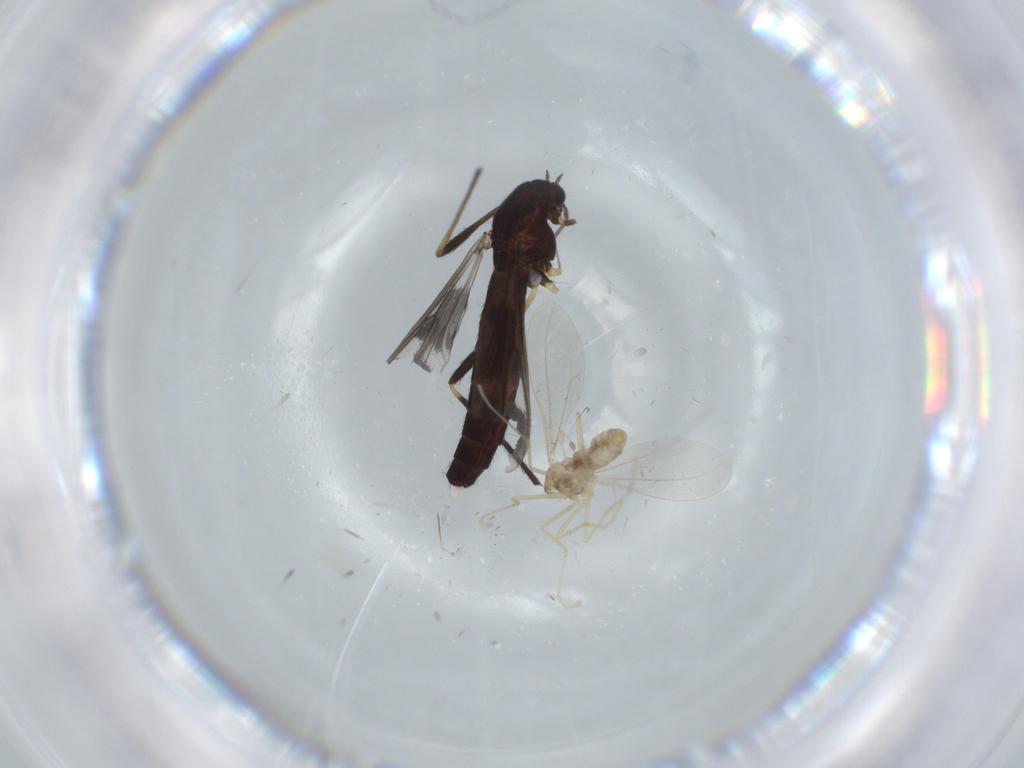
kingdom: Animalia
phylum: Arthropoda
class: Insecta
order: Diptera
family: Chironomidae
